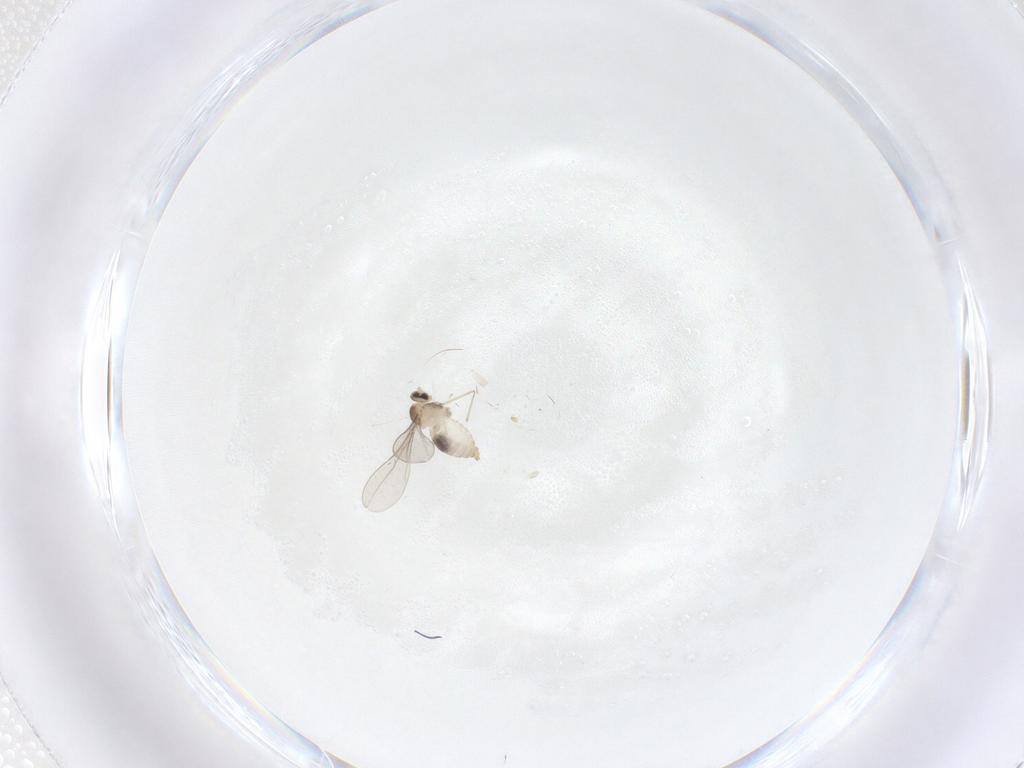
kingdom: Animalia
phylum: Arthropoda
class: Insecta
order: Diptera
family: Cecidomyiidae
